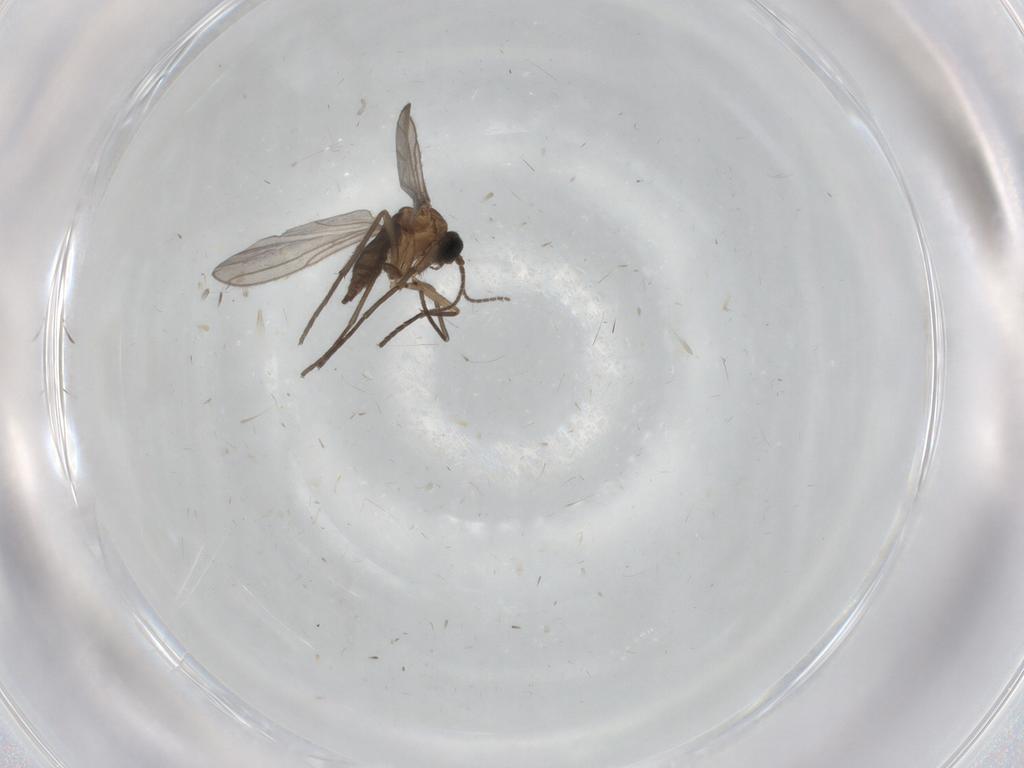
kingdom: Animalia
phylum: Arthropoda
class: Insecta
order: Diptera
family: Sciaridae
